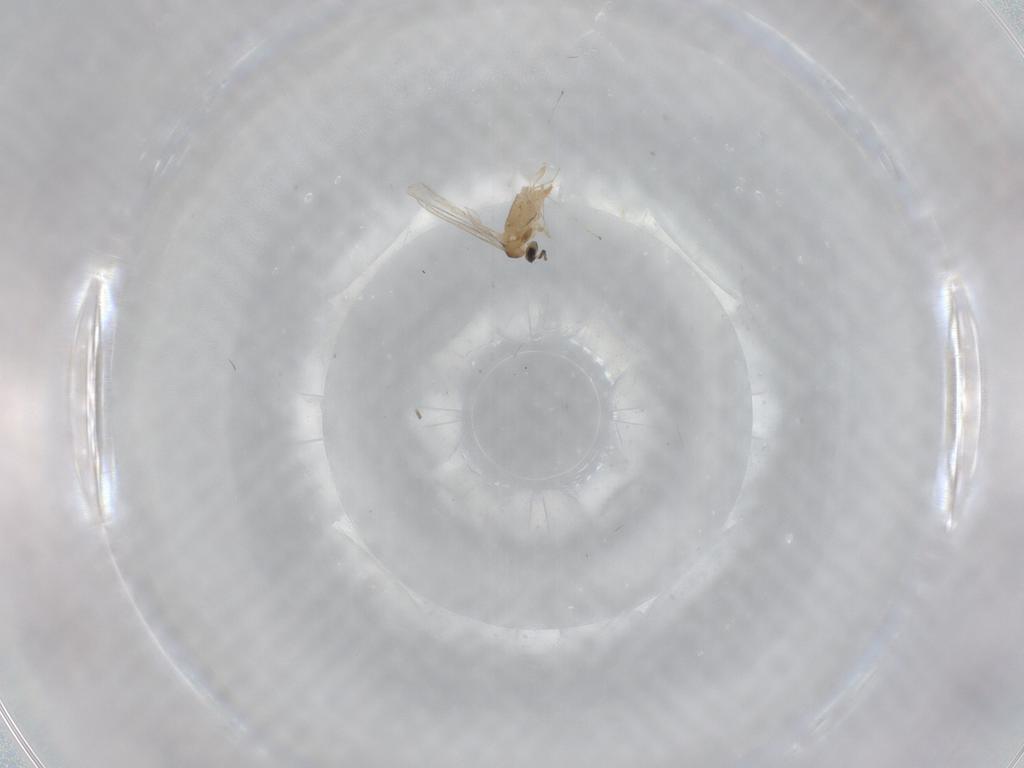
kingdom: Animalia
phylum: Arthropoda
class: Insecta
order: Diptera
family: Cecidomyiidae
